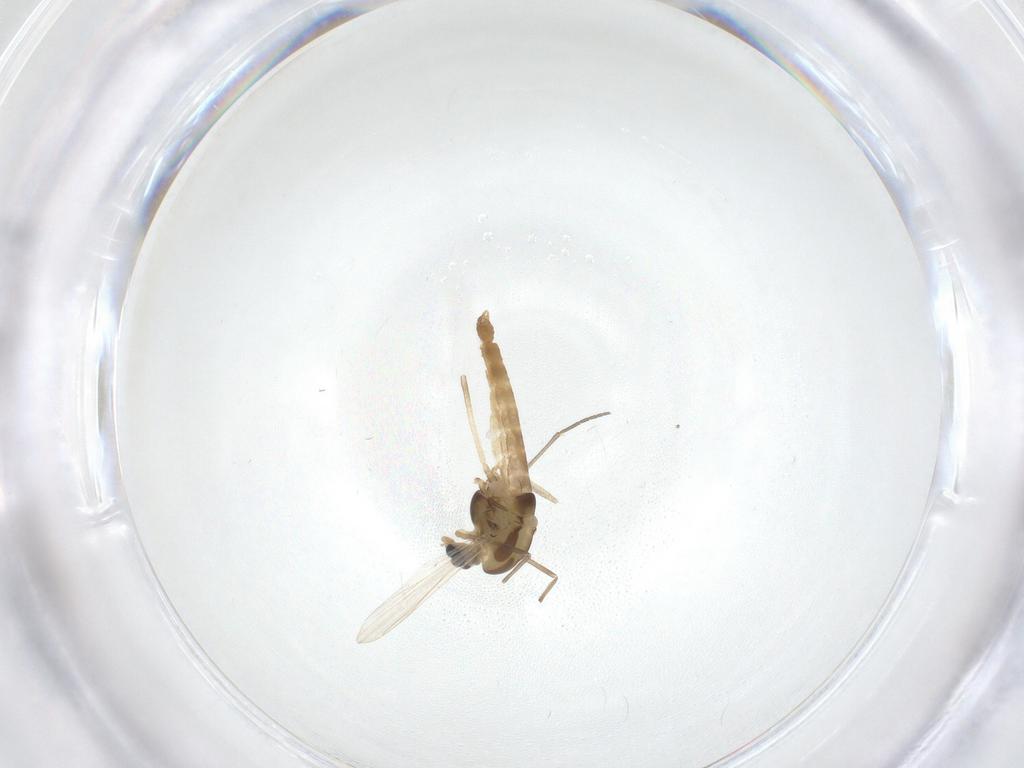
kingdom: Animalia
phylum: Arthropoda
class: Insecta
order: Diptera
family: Chironomidae
